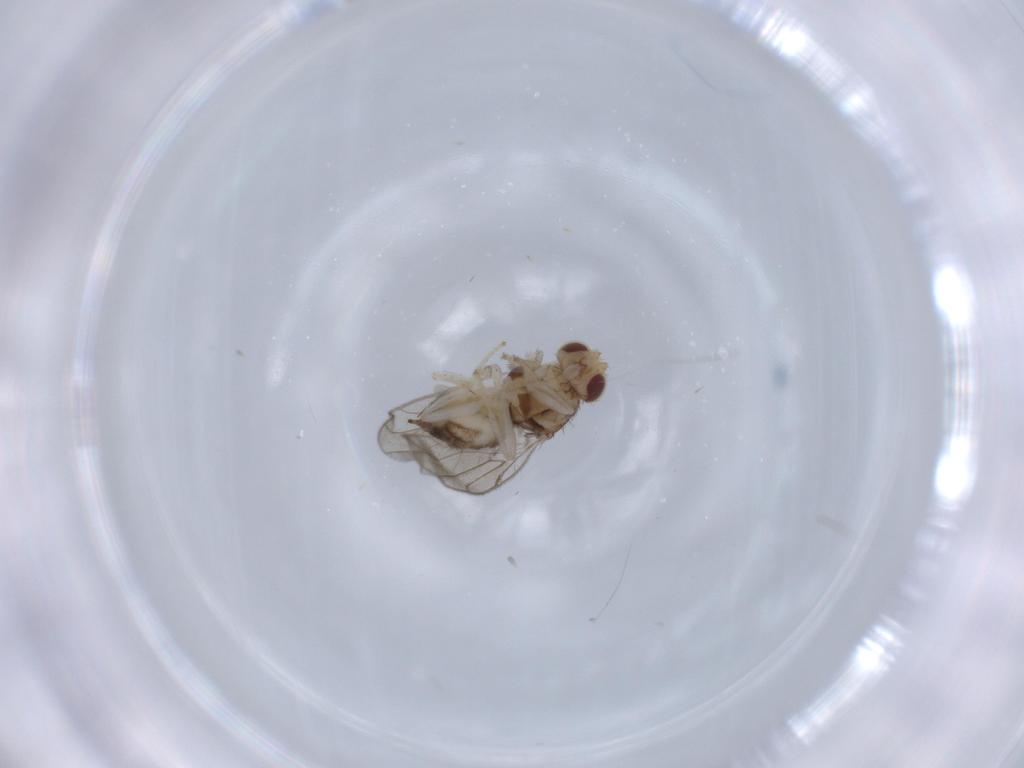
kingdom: Animalia
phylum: Arthropoda
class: Insecta
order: Diptera
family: Chloropidae
